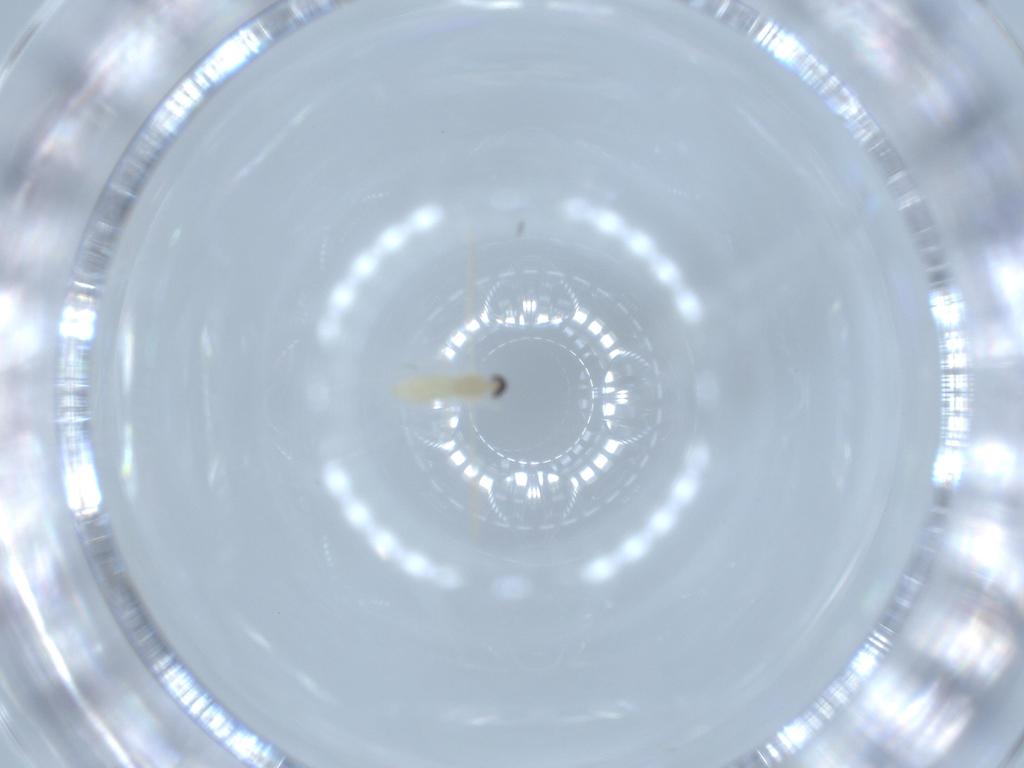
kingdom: Animalia
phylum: Arthropoda
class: Insecta
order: Diptera
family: Cecidomyiidae
